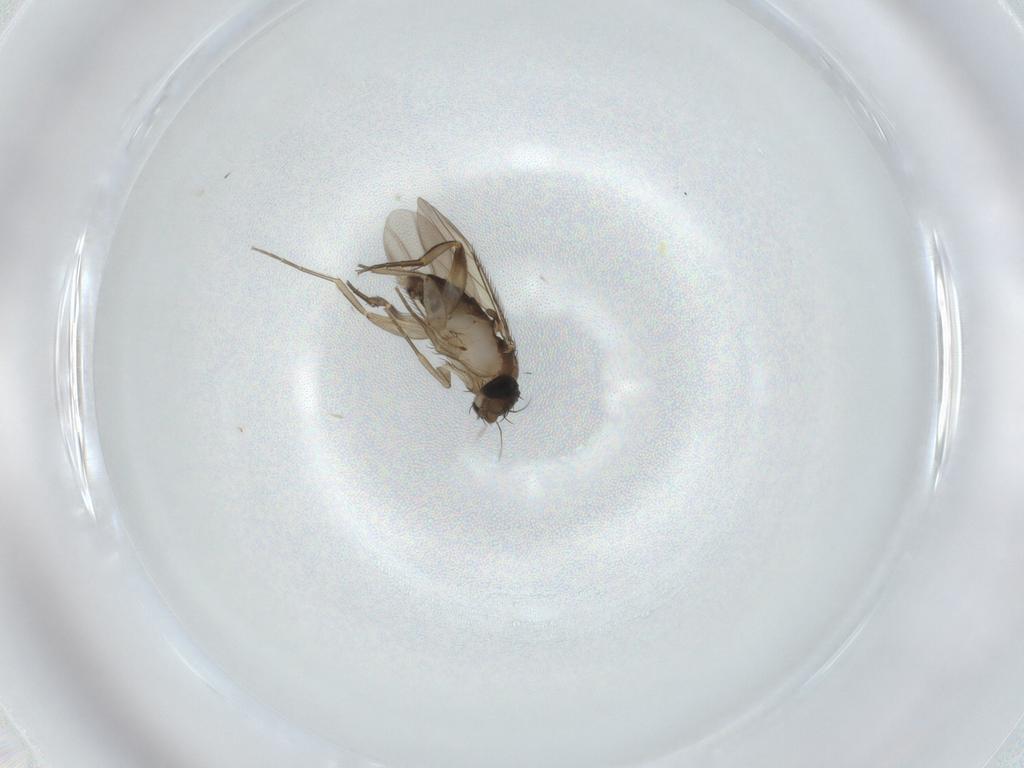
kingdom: Animalia
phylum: Arthropoda
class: Insecta
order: Diptera
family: Phoridae
